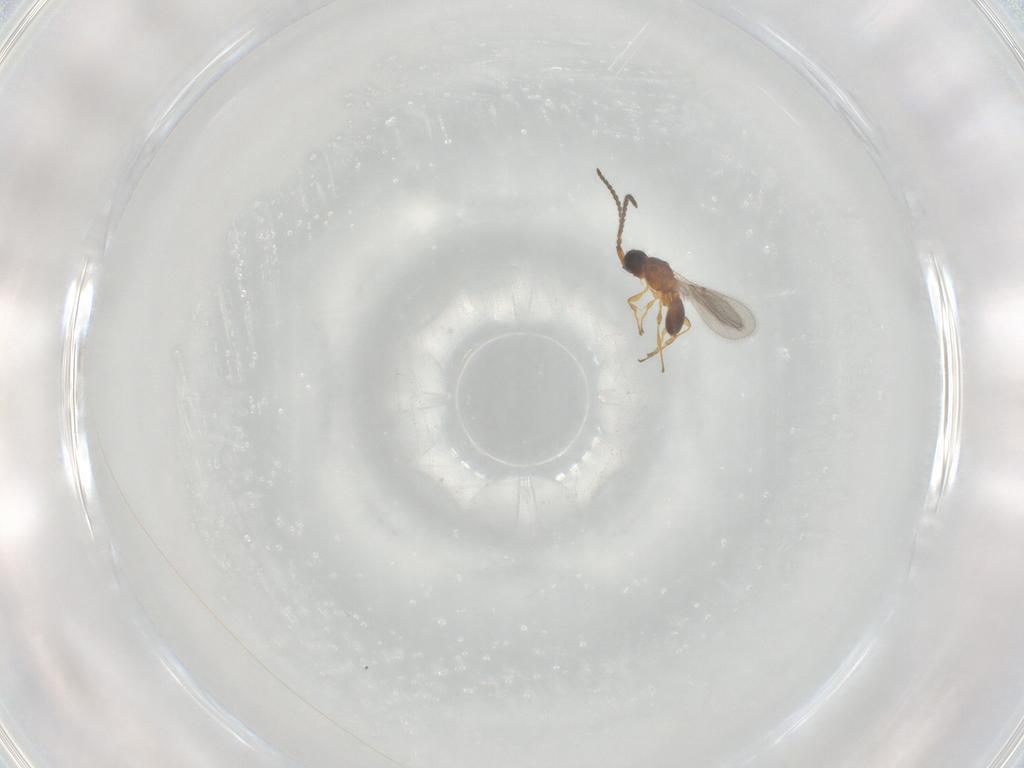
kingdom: Animalia
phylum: Arthropoda
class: Insecta
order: Hymenoptera
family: Diapriidae
